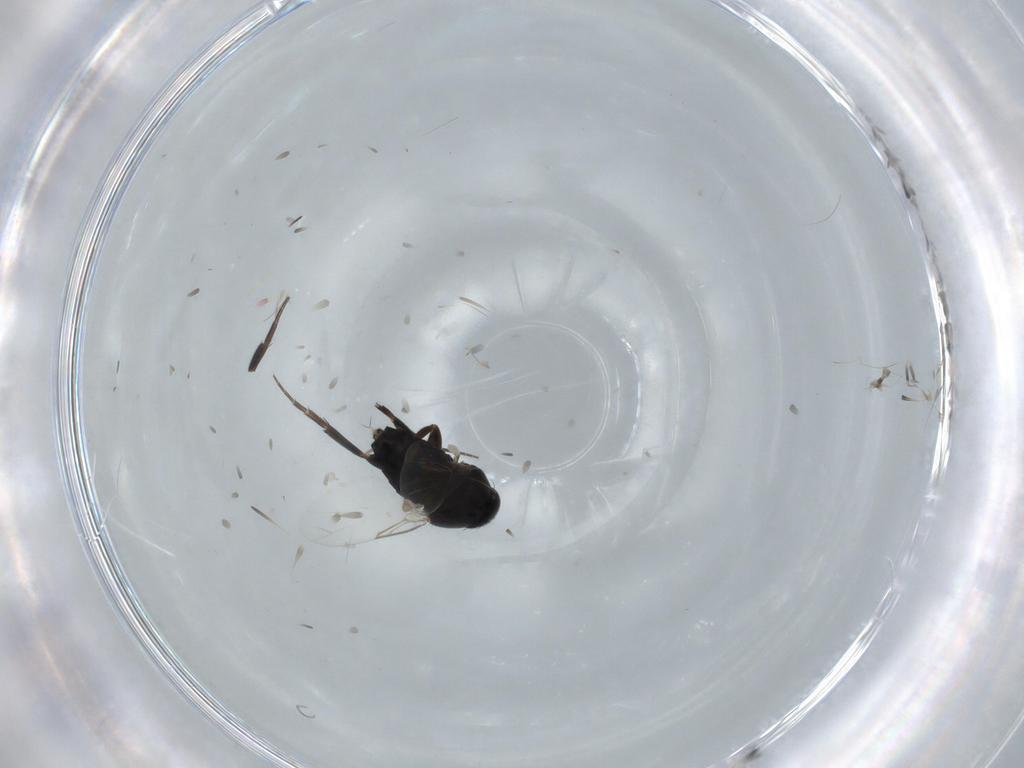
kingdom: Animalia
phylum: Arthropoda
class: Insecta
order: Diptera
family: Phoridae
